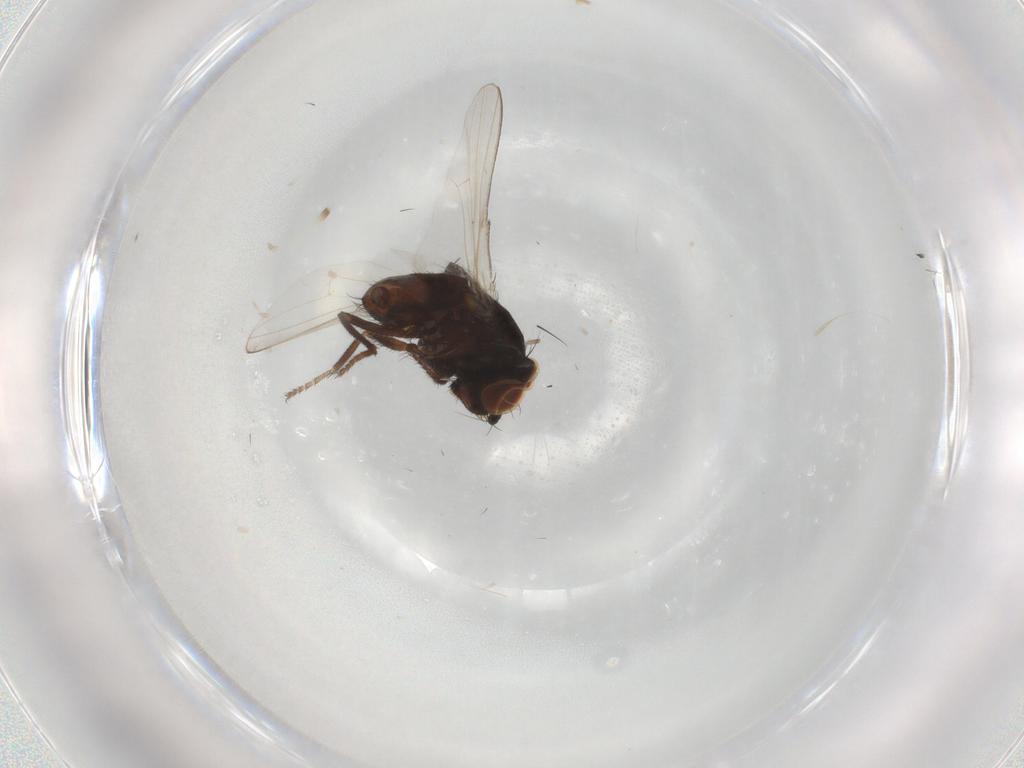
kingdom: Animalia
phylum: Arthropoda
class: Insecta
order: Diptera
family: Milichiidae
